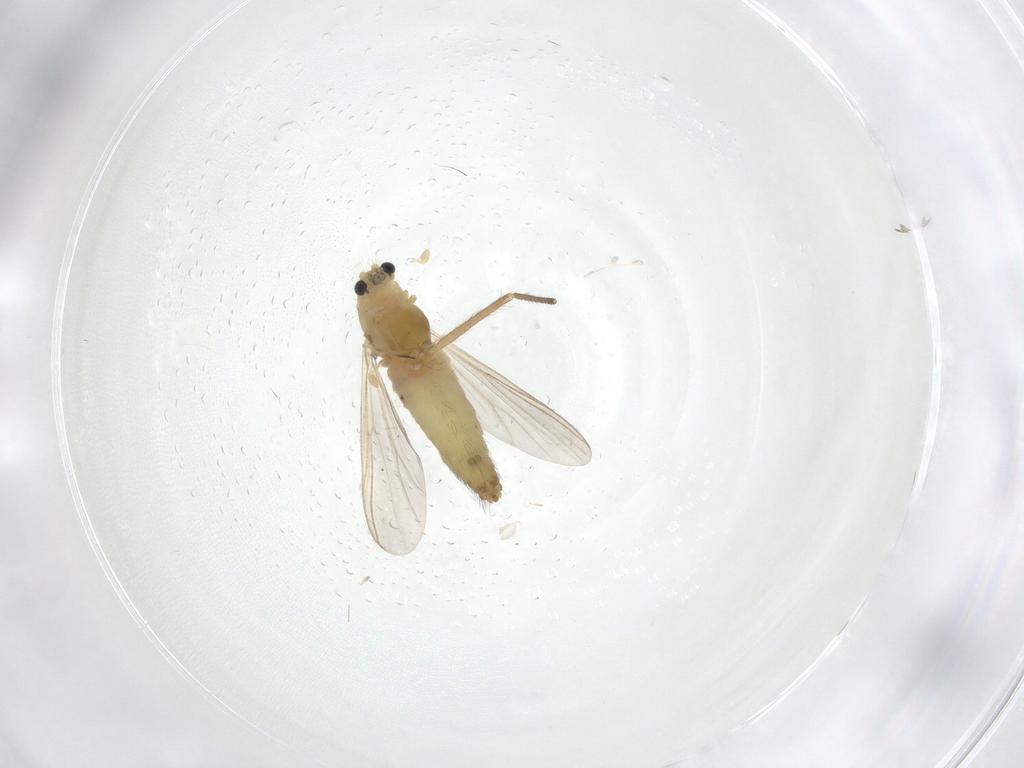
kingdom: Animalia
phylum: Arthropoda
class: Insecta
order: Diptera
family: Chironomidae
